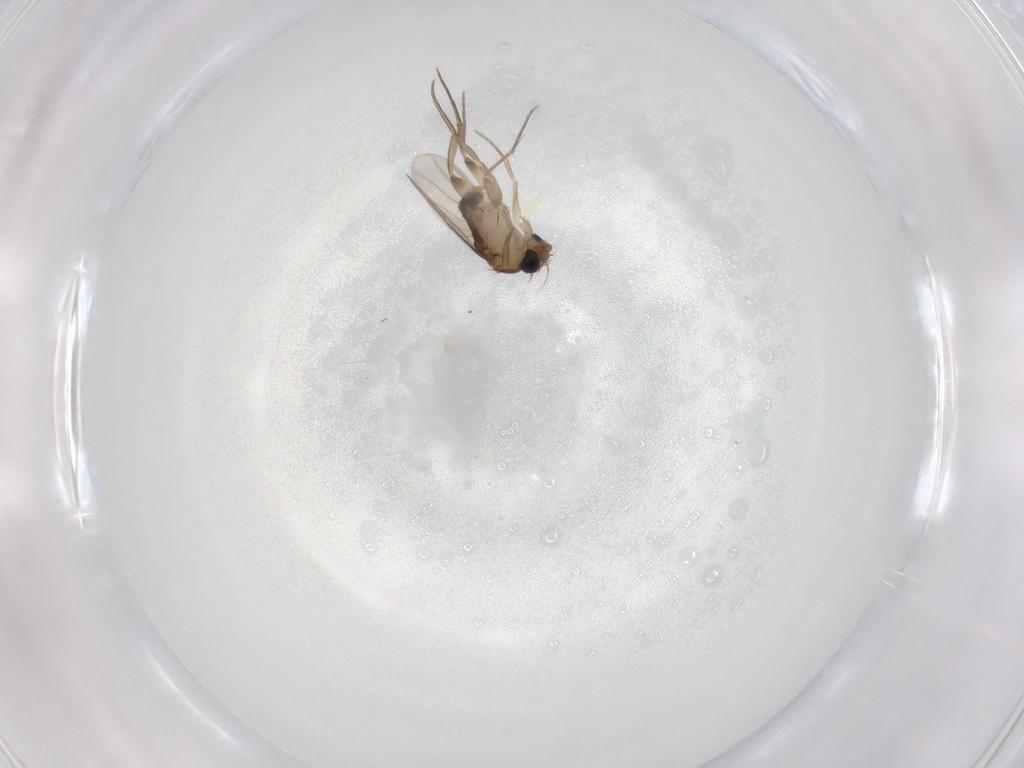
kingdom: Animalia
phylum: Arthropoda
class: Insecta
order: Diptera
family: Phoridae
